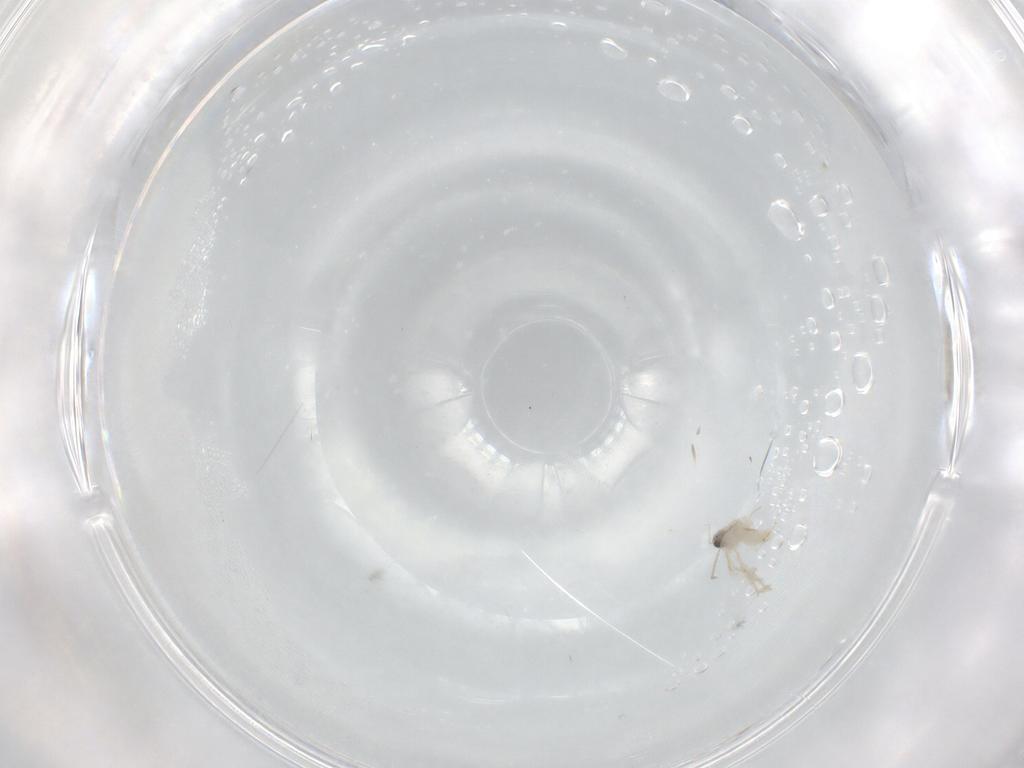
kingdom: Animalia
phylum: Arthropoda
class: Insecta
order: Diptera
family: Cecidomyiidae
